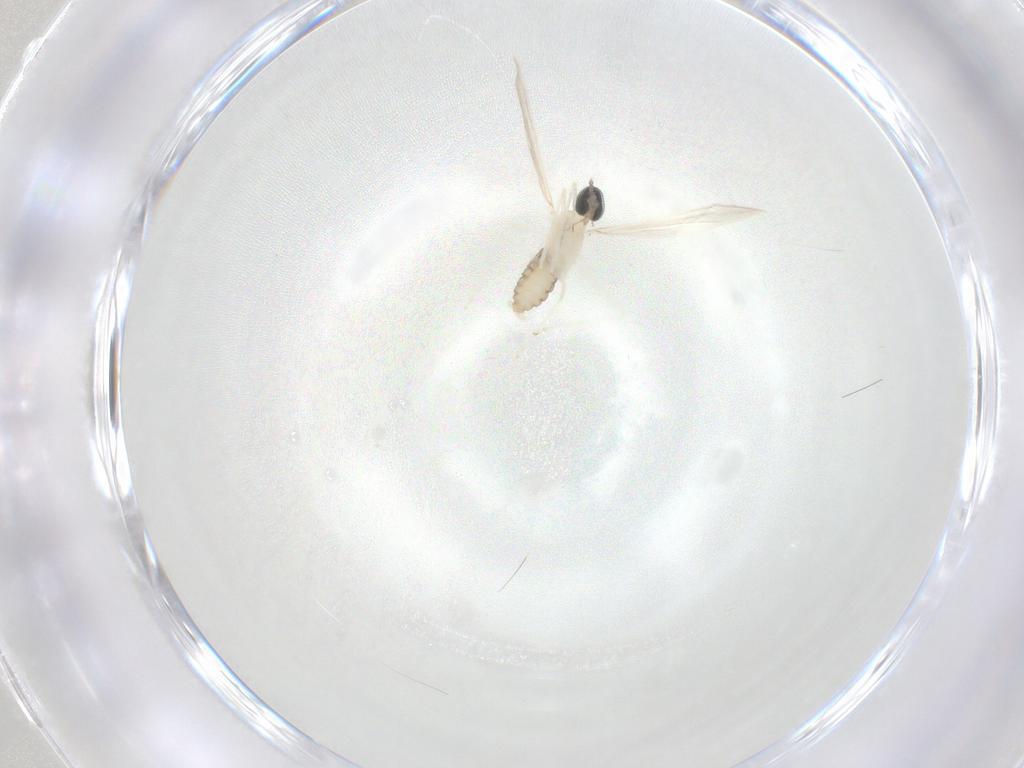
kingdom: Animalia
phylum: Arthropoda
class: Insecta
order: Diptera
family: Cecidomyiidae
